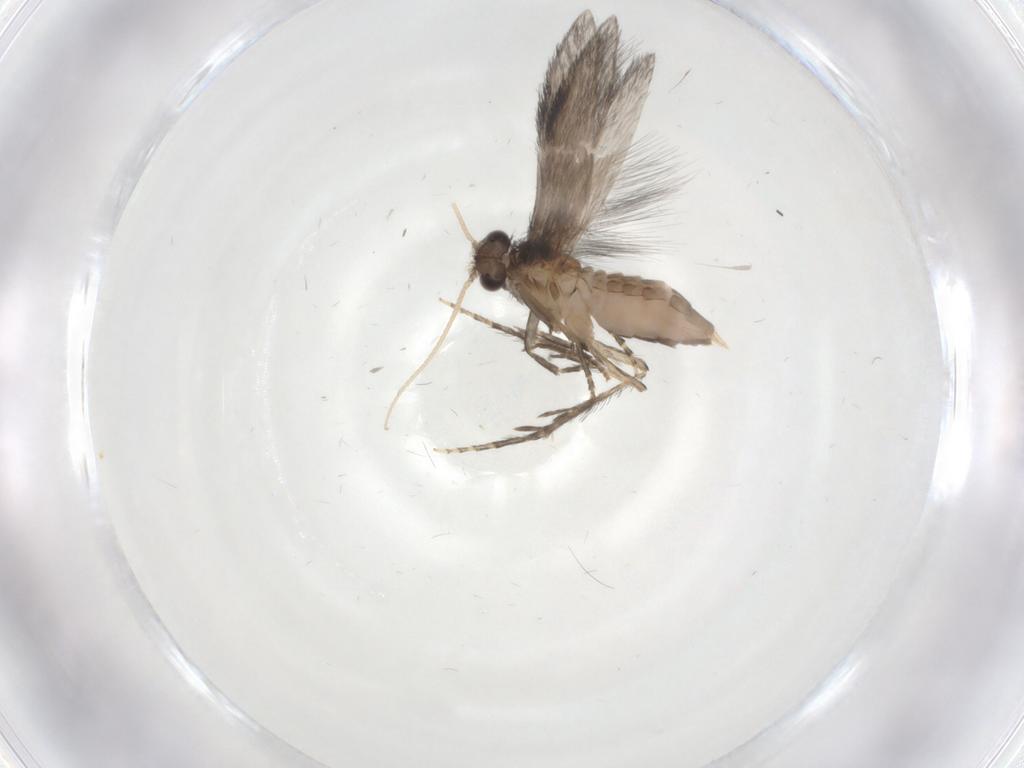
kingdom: Animalia
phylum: Arthropoda
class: Insecta
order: Trichoptera
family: Hydroptilidae
